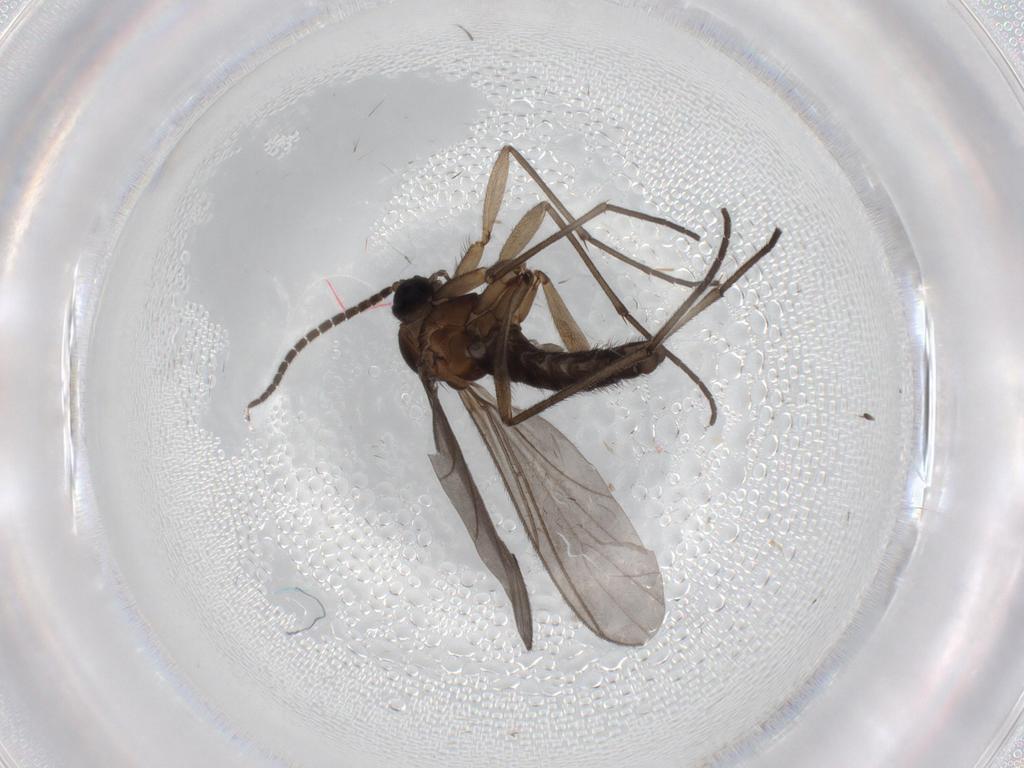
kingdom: Animalia
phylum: Arthropoda
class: Insecta
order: Diptera
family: Sciaridae
